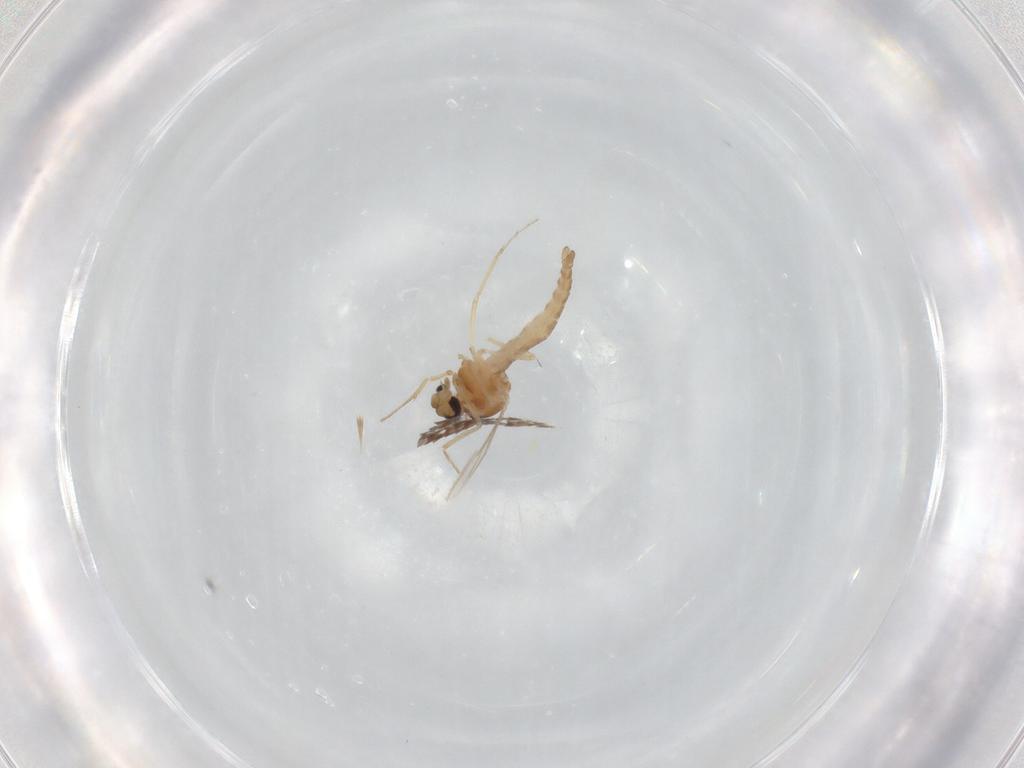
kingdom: Animalia
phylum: Arthropoda
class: Insecta
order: Diptera
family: Ceratopogonidae
